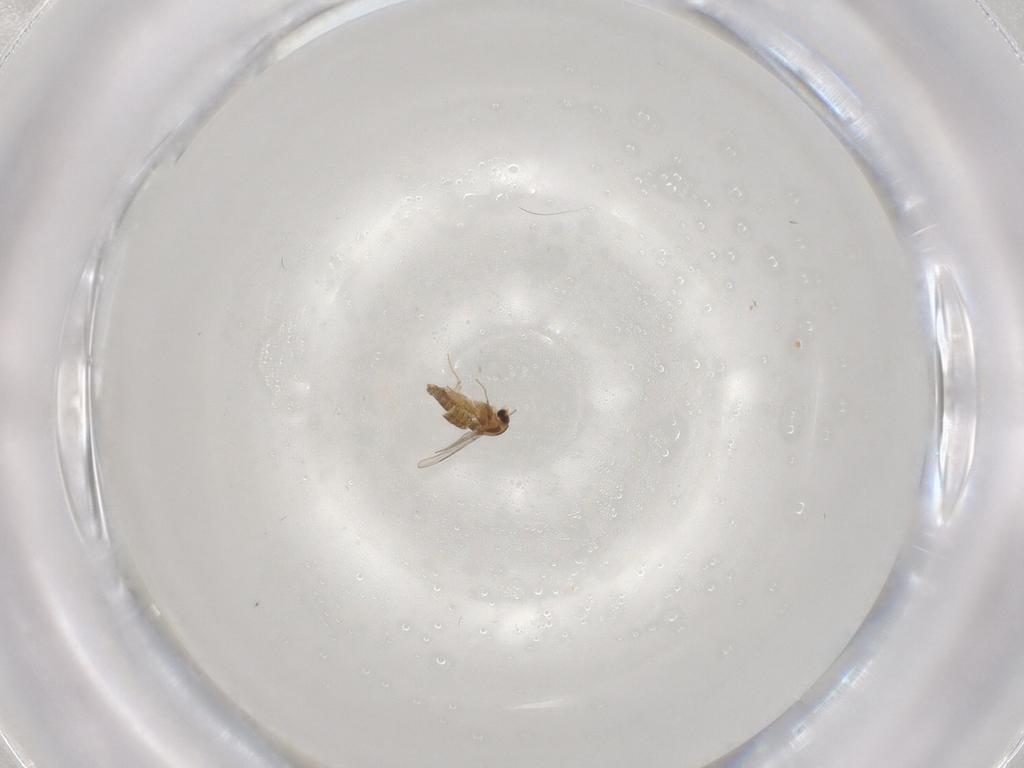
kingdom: Animalia
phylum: Arthropoda
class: Insecta
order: Diptera
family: Chironomidae
